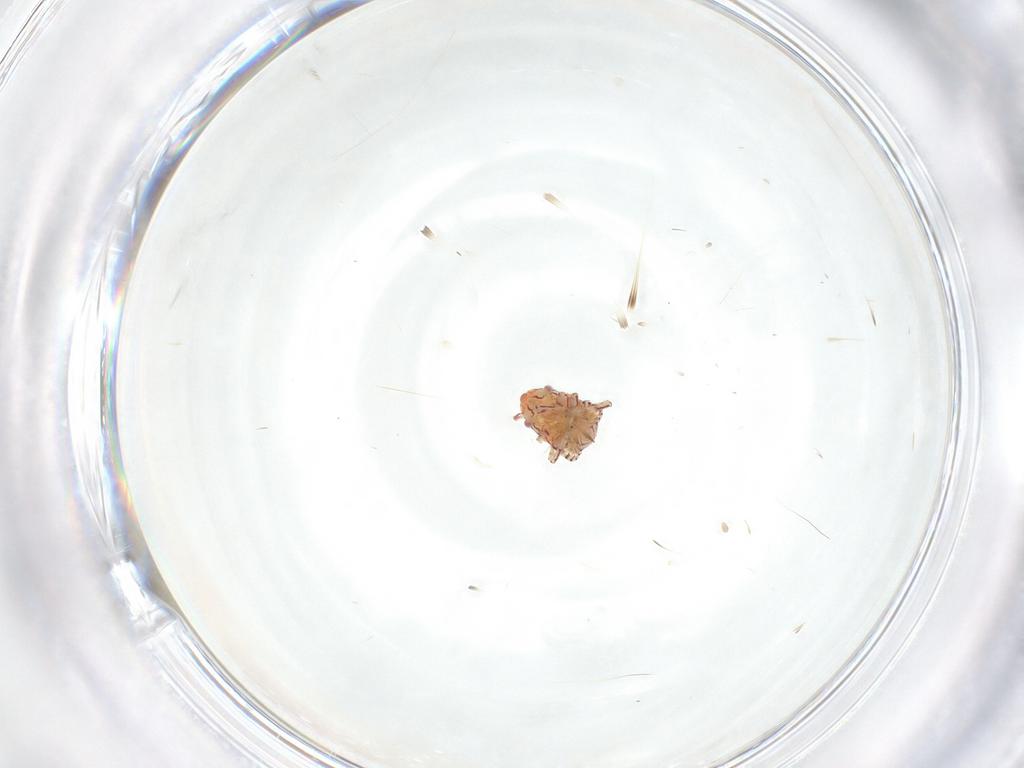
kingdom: Animalia
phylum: Arthropoda
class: Insecta
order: Hemiptera
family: Miridae
